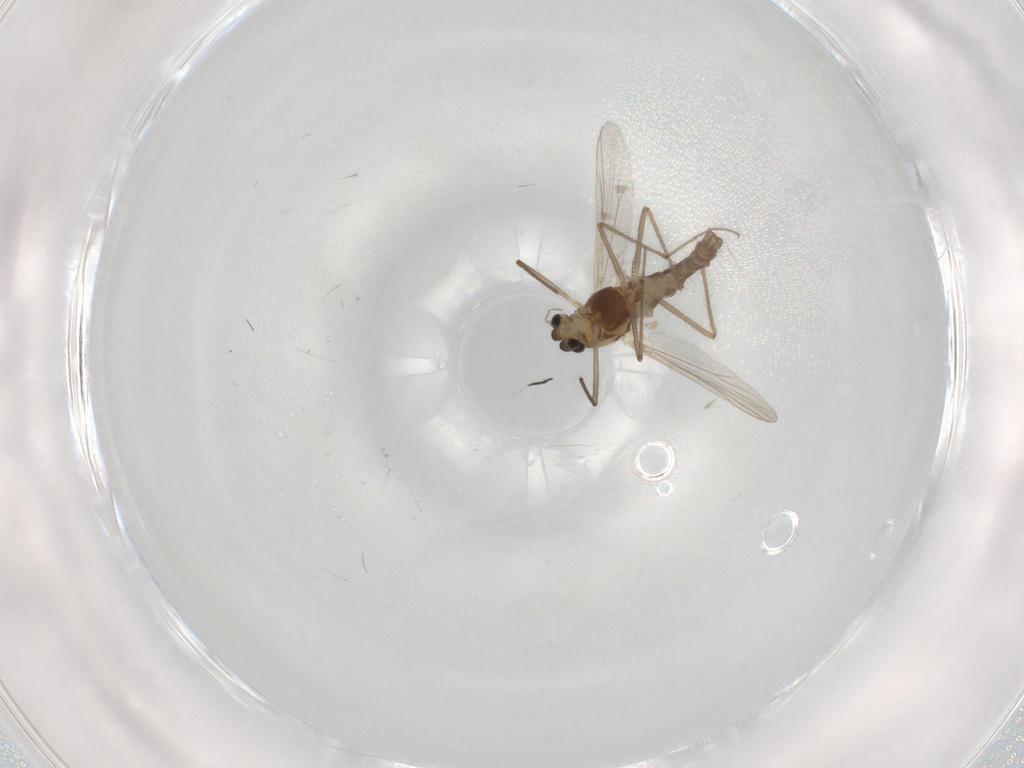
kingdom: Animalia
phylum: Arthropoda
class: Insecta
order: Diptera
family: Chironomidae
